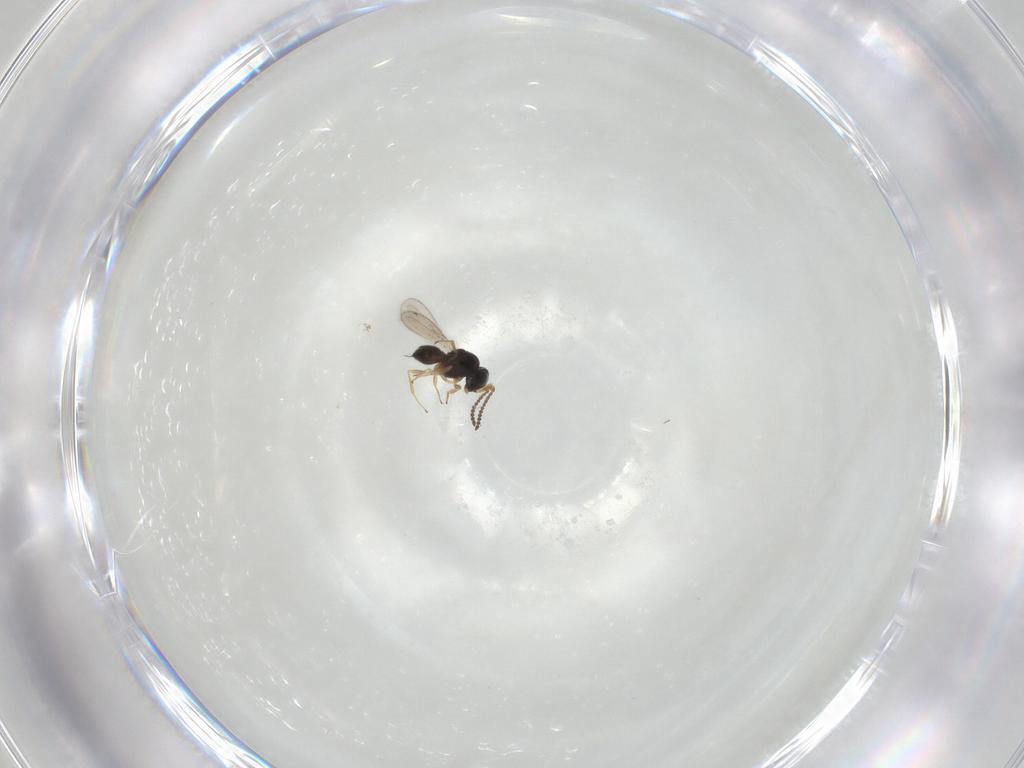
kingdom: Animalia
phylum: Arthropoda
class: Insecta
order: Hymenoptera
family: Formicidae
